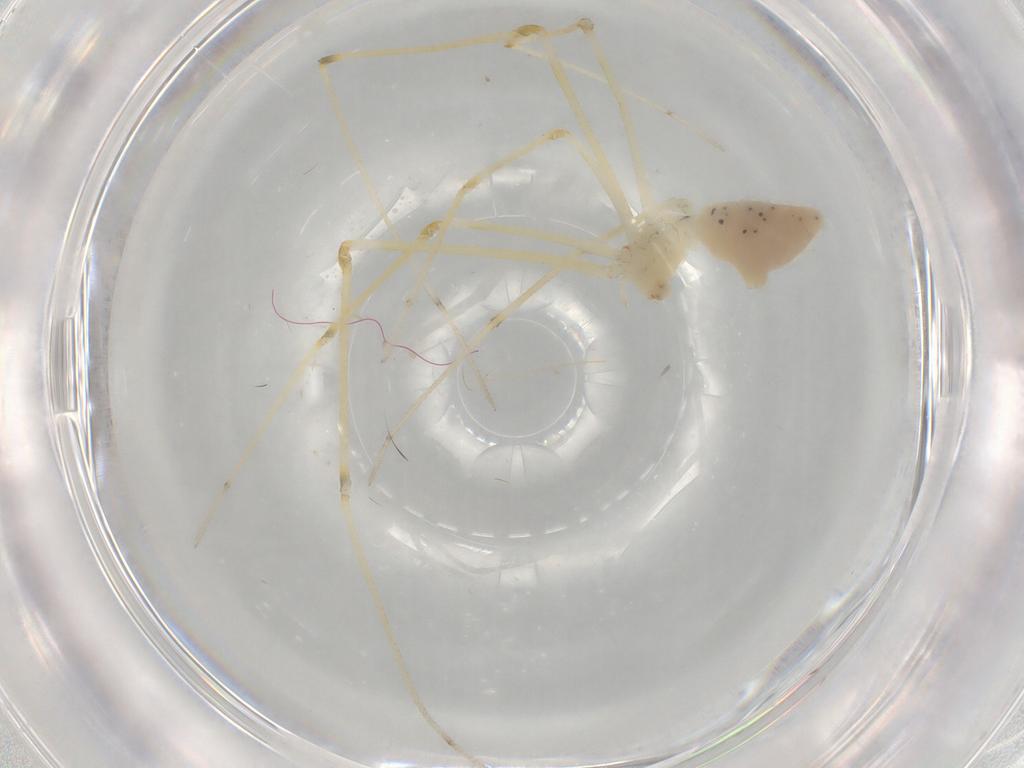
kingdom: Animalia
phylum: Arthropoda
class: Arachnida
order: Araneae
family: Pholcidae
